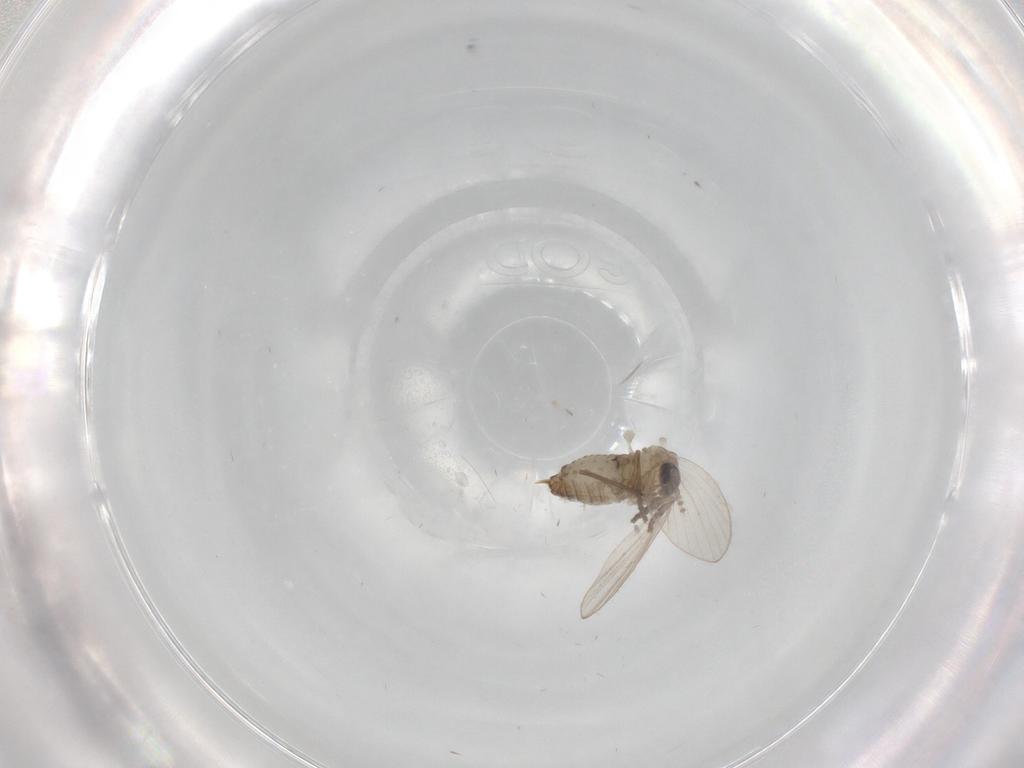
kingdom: Animalia
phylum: Arthropoda
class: Insecta
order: Diptera
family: Psychodidae
